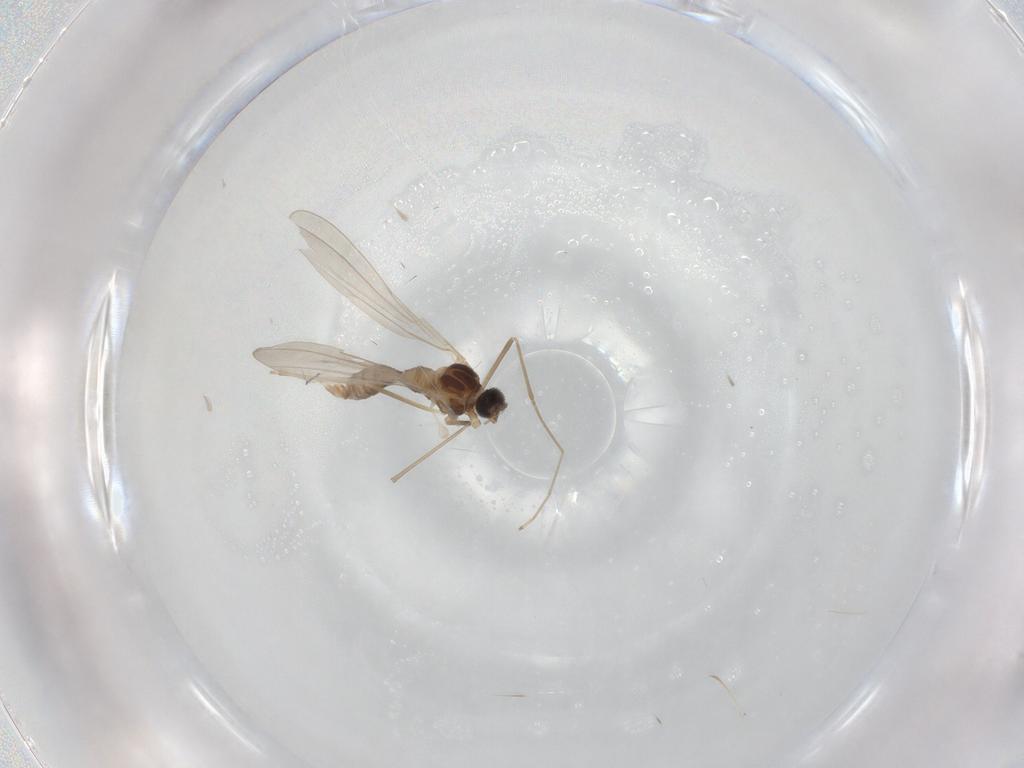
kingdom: Animalia
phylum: Arthropoda
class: Insecta
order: Diptera
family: Cecidomyiidae
